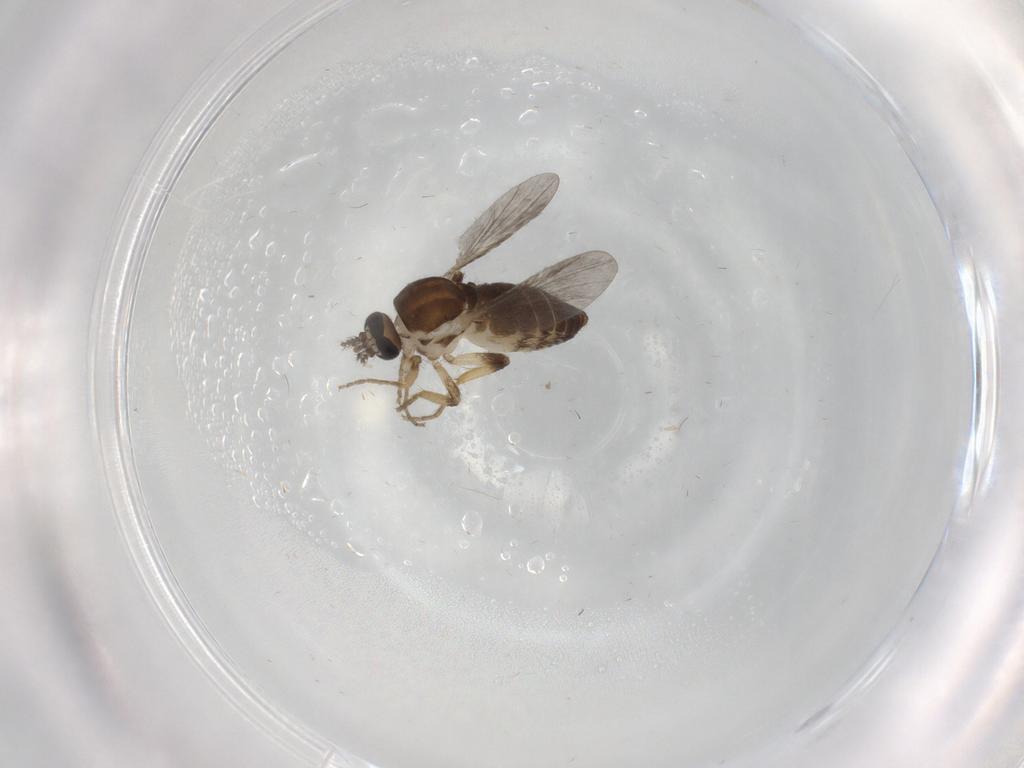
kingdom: Animalia
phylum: Arthropoda
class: Insecta
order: Diptera
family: Ceratopogonidae
